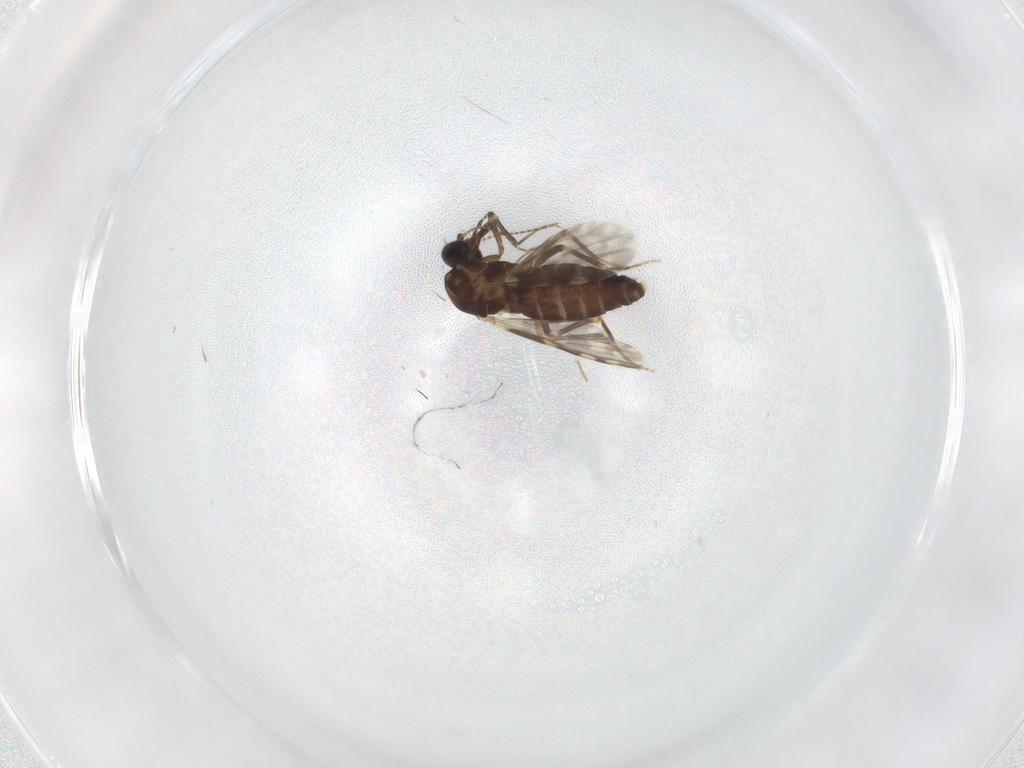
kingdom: Animalia
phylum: Arthropoda
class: Insecta
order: Diptera
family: Ceratopogonidae
